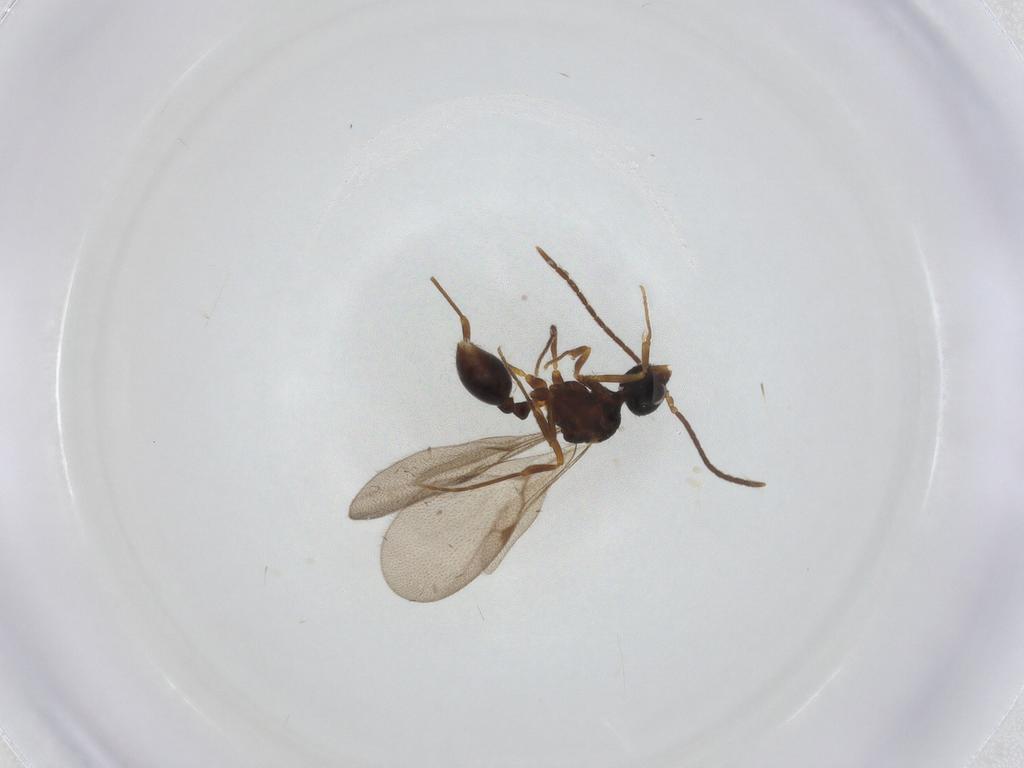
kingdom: Animalia
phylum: Arthropoda
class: Insecta
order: Hymenoptera
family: Formicidae
